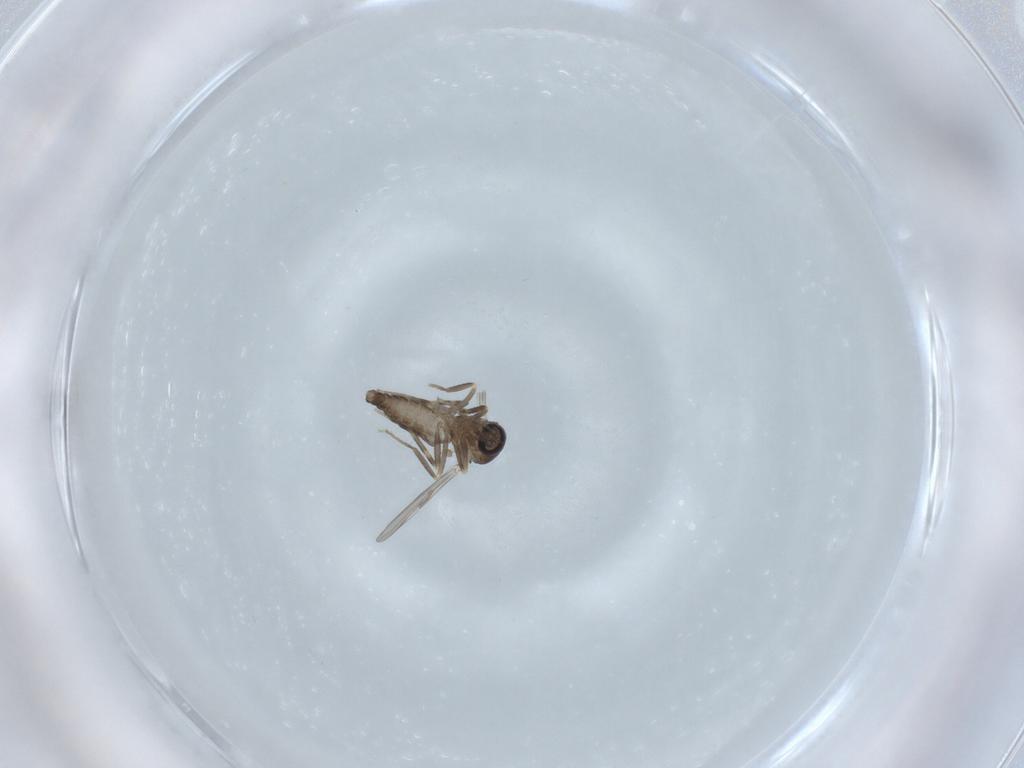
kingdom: Animalia
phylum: Arthropoda
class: Insecta
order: Diptera
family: Ceratopogonidae
